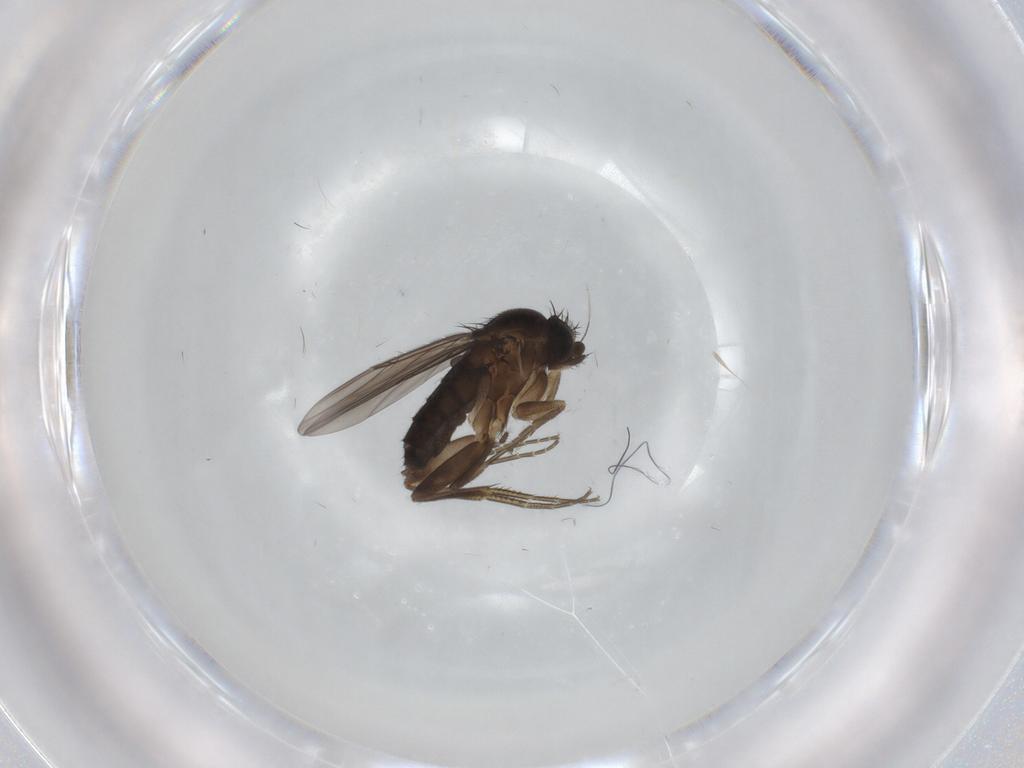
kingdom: Animalia
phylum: Arthropoda
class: Insecta
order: Diptera
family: Phoridae
